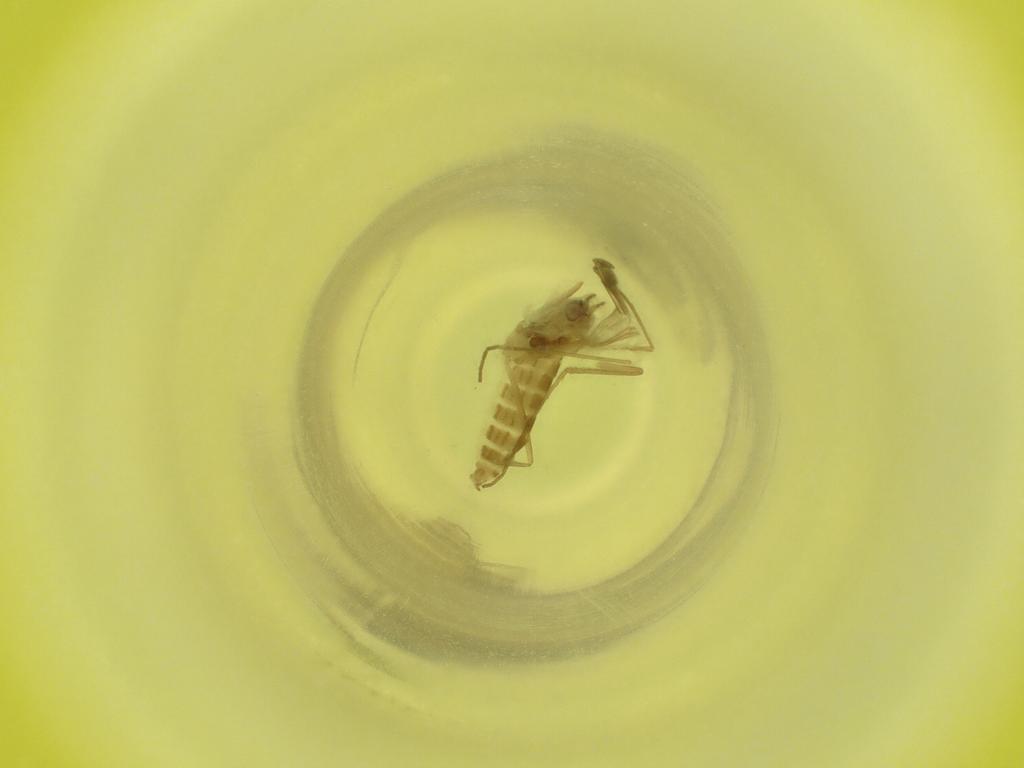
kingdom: Animalia
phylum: Arthropoda
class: Insecta
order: Diptera
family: Cecidomyiidae
